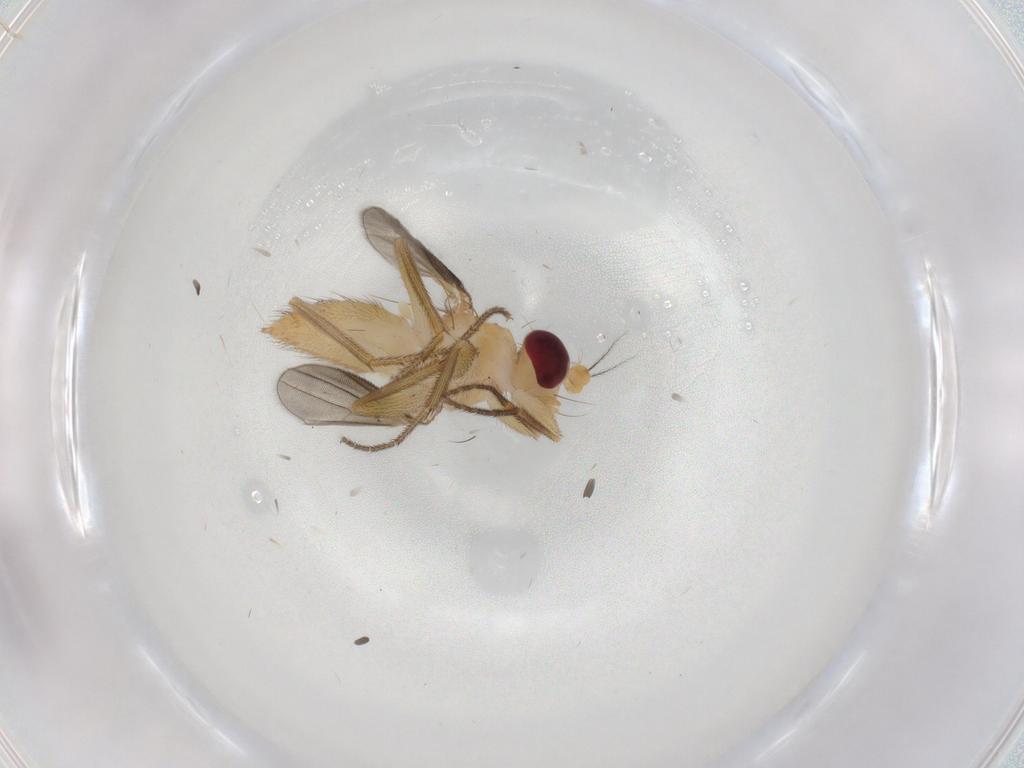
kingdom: Animalia
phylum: Arthropoda
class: Insecta
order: Diptera
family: Clusiidae
